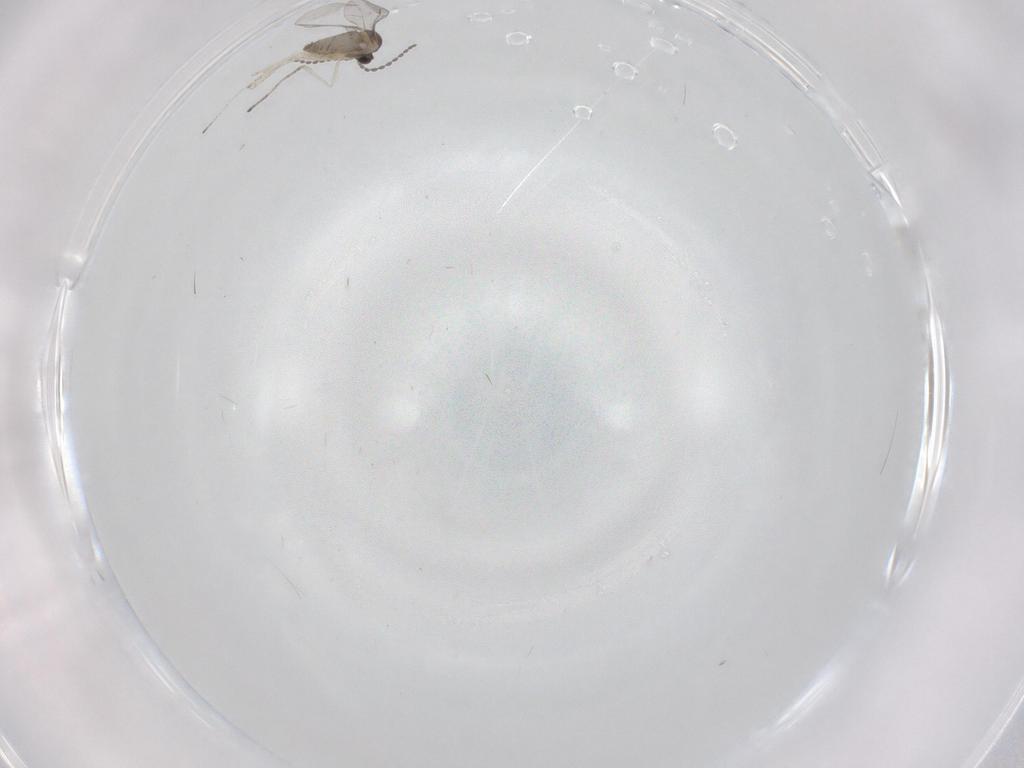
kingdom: Animalia
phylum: Arthropoda
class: Insecta
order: Diptera
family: Cecidomyiidae
